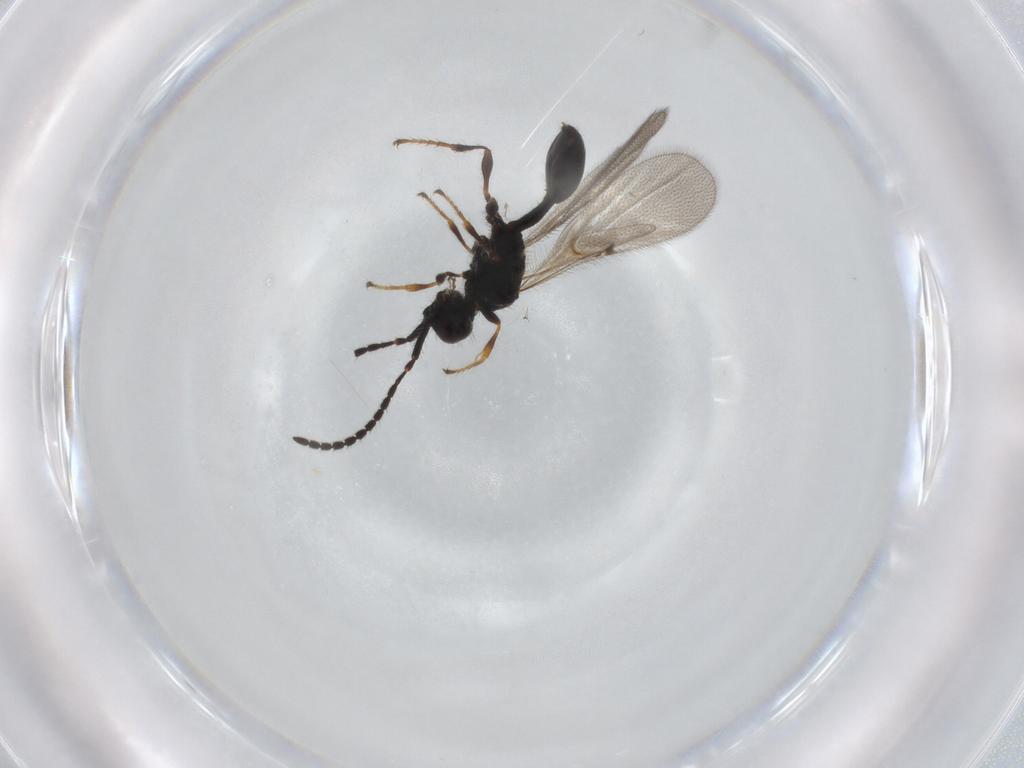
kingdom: Animalia
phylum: Arthropoda
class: Insecta
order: Hymenoptera
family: Diapriidae
